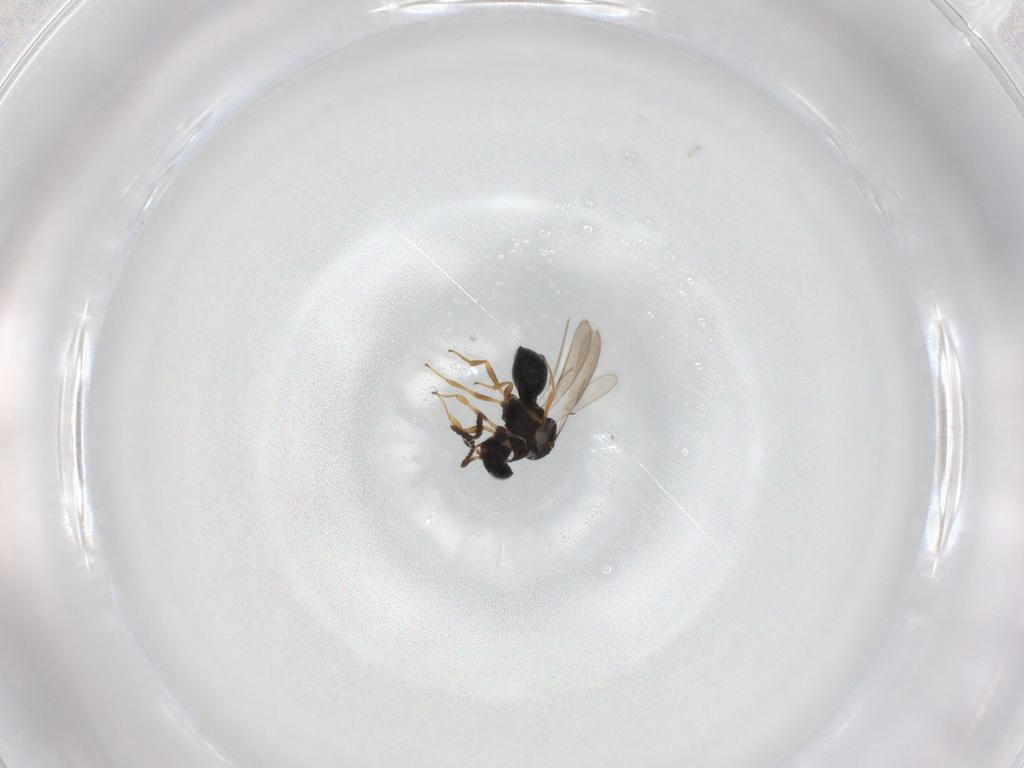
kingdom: Animalia
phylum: Arthropoda
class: Insecta
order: Hymenoptera
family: Scelionidae
